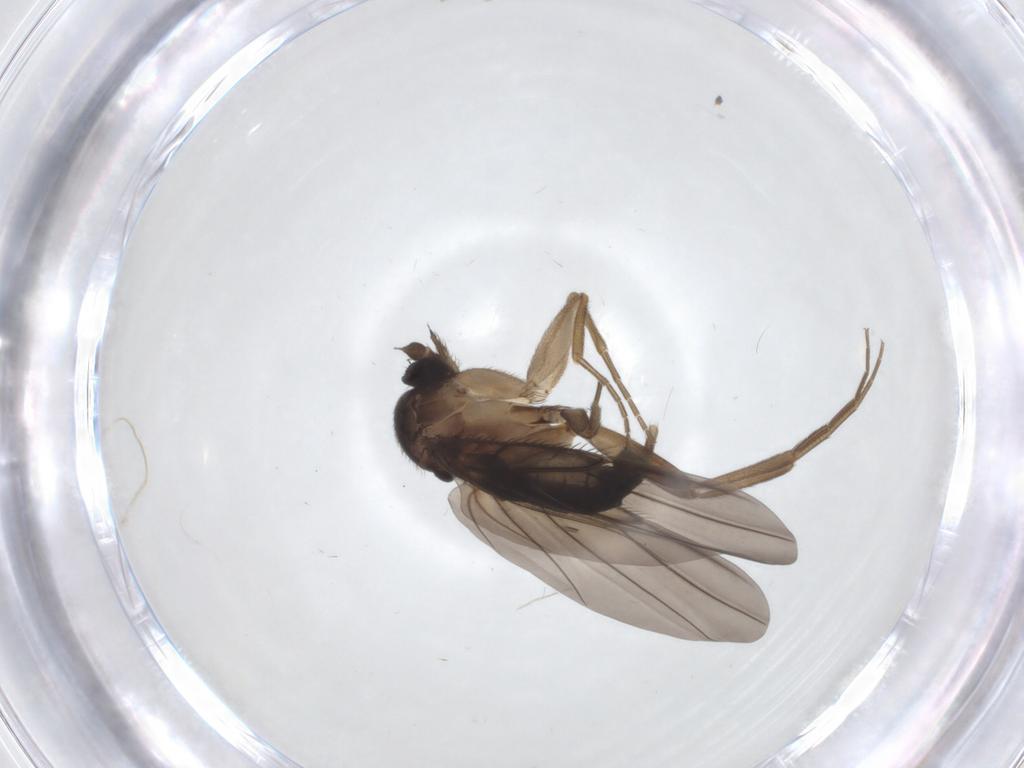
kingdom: Animalia
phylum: Arthropoda
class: Insecta
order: Diptera
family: Phoridae
